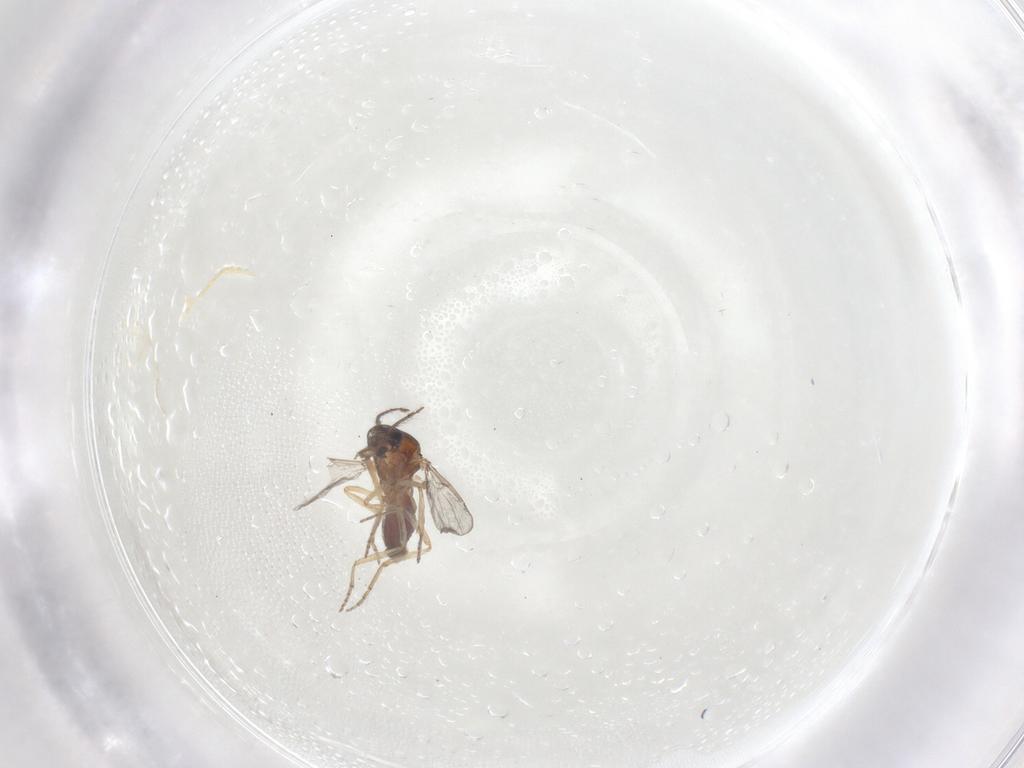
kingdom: Animalia
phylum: Arthropoda
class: Insecta
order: Diptera
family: Ceratopogonidae
